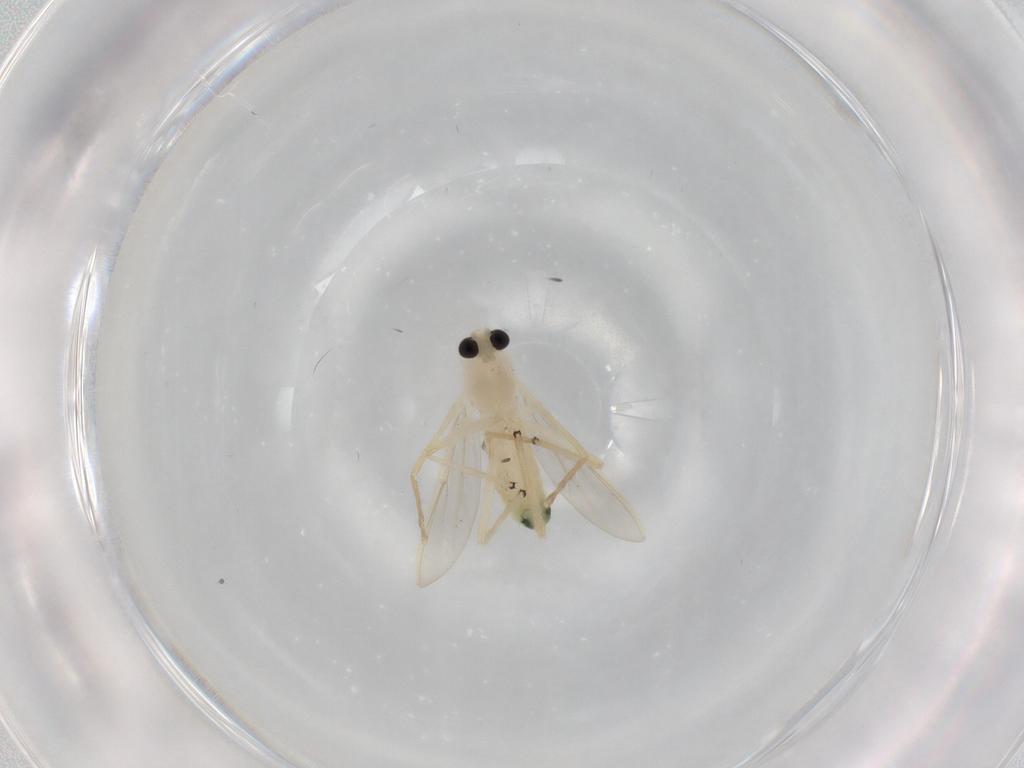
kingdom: Animalia
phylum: Arthropoda
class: Insecta
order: Diptera
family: Chironomidae
